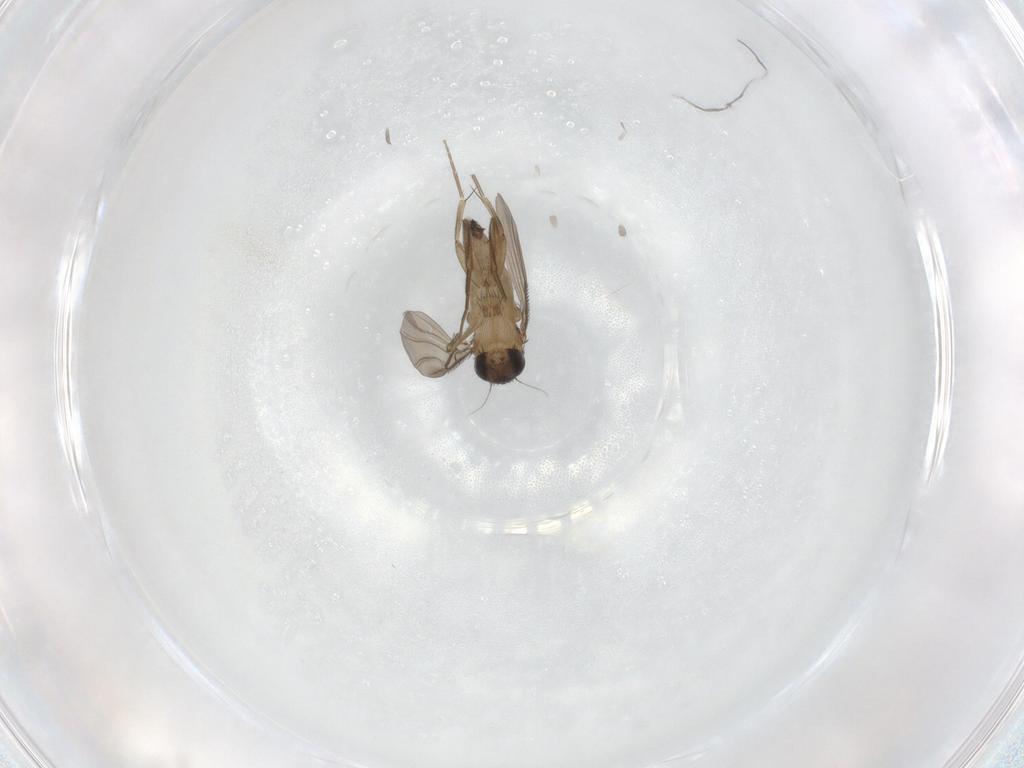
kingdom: Animalia
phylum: Arthropoda
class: Insecta
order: Diptera
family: Phoridae
